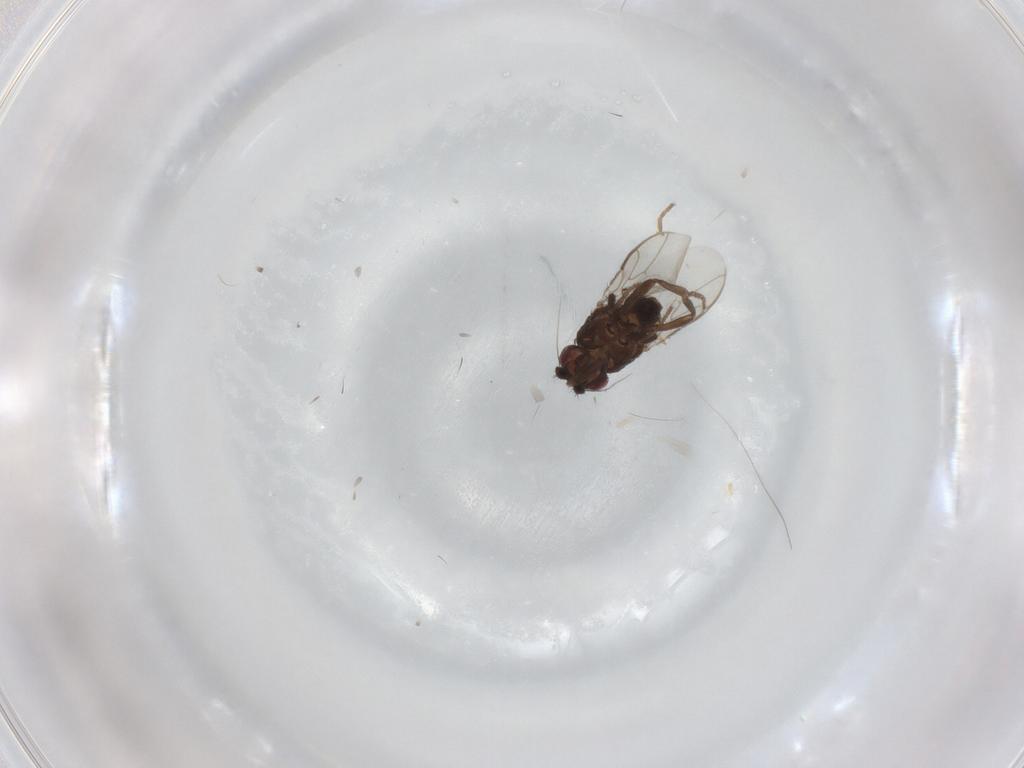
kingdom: Animalia
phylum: Arthropoda
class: Insecta
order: Diptera
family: Sphaeroceridae
